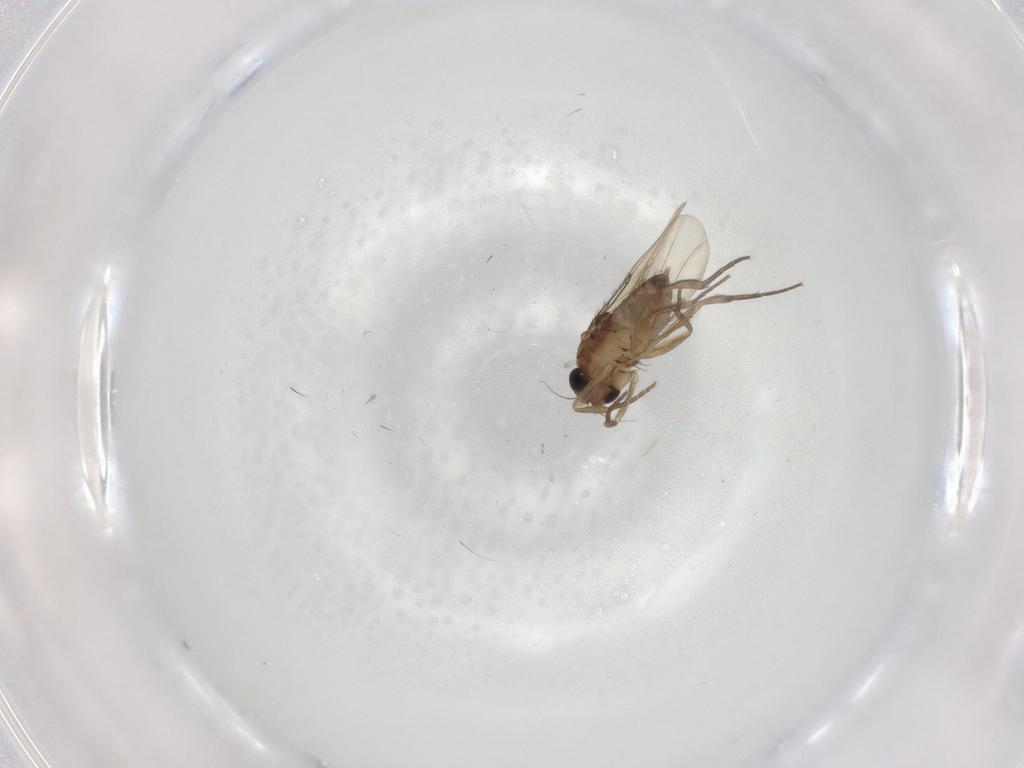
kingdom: Animalia
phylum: Arthropoda
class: Insecta
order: Diptera
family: Phoridae
